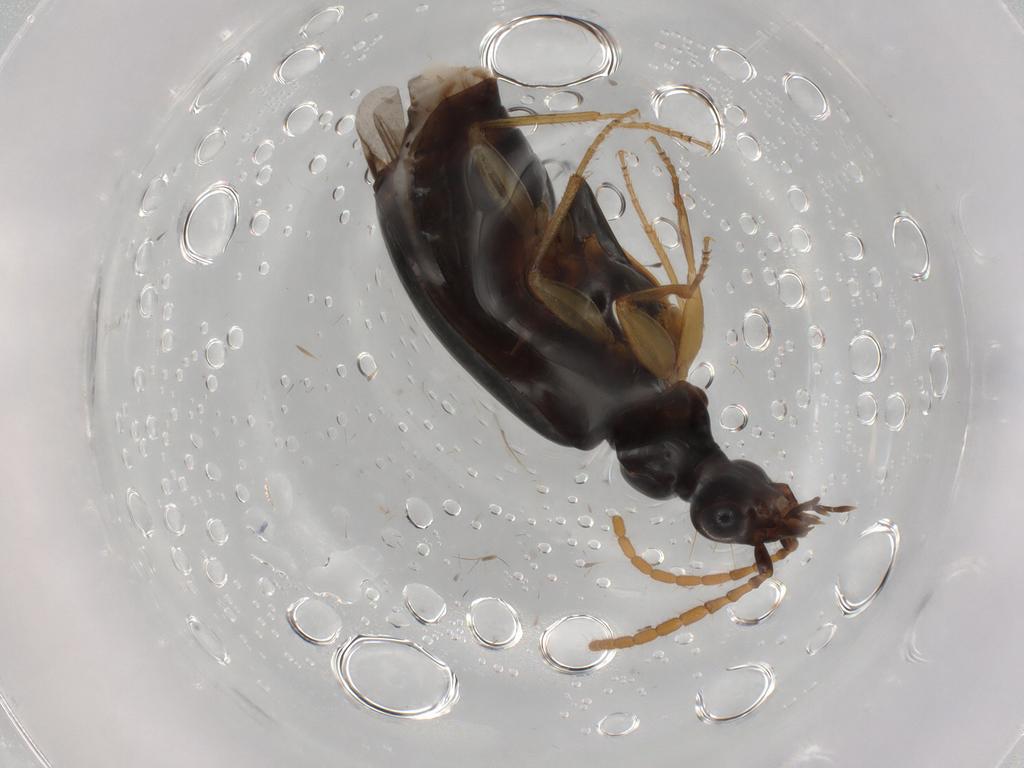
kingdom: Animalia
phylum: Arthropoda
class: Insecta
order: Coleoptera
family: Carabidae
